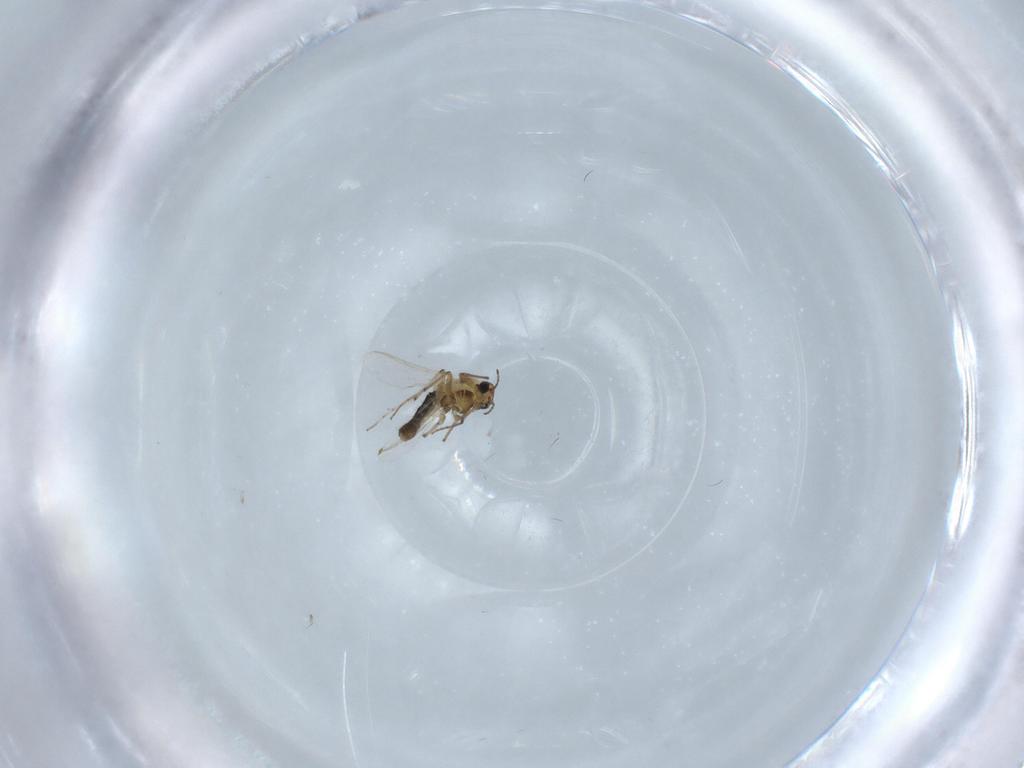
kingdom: Animalia
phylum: Arthropoda
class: Insecta
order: Diptera
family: Chironomidae
